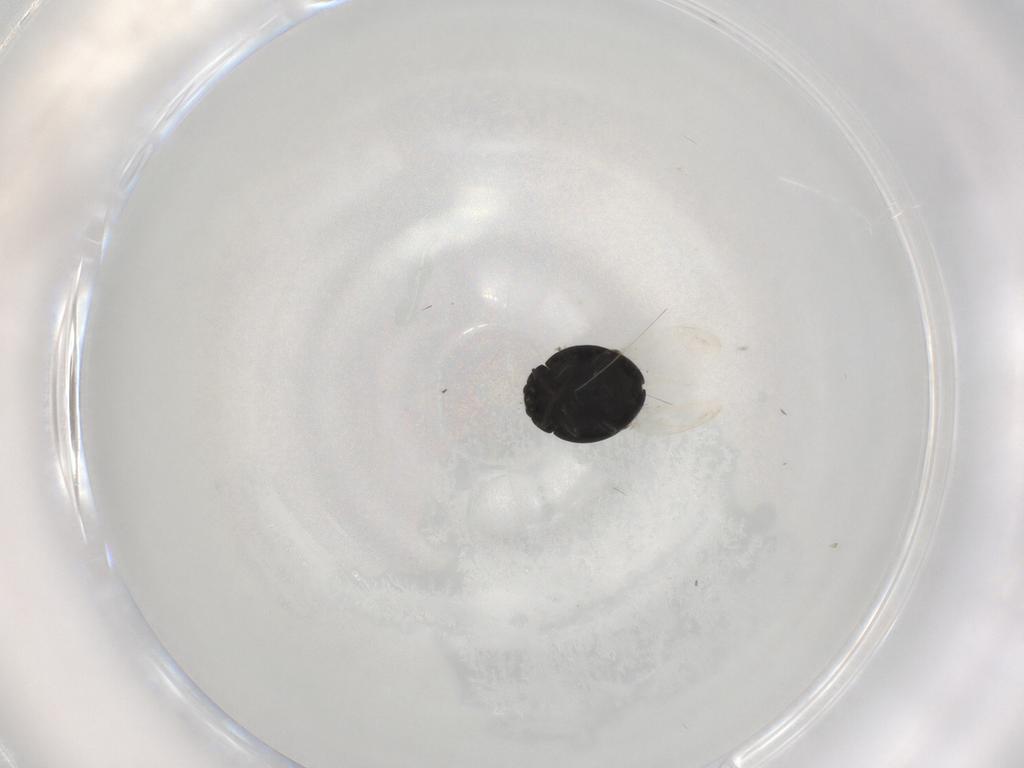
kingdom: Animalia
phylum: Arthropoda
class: Insecta
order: Coleoptera
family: Coccinellidae
